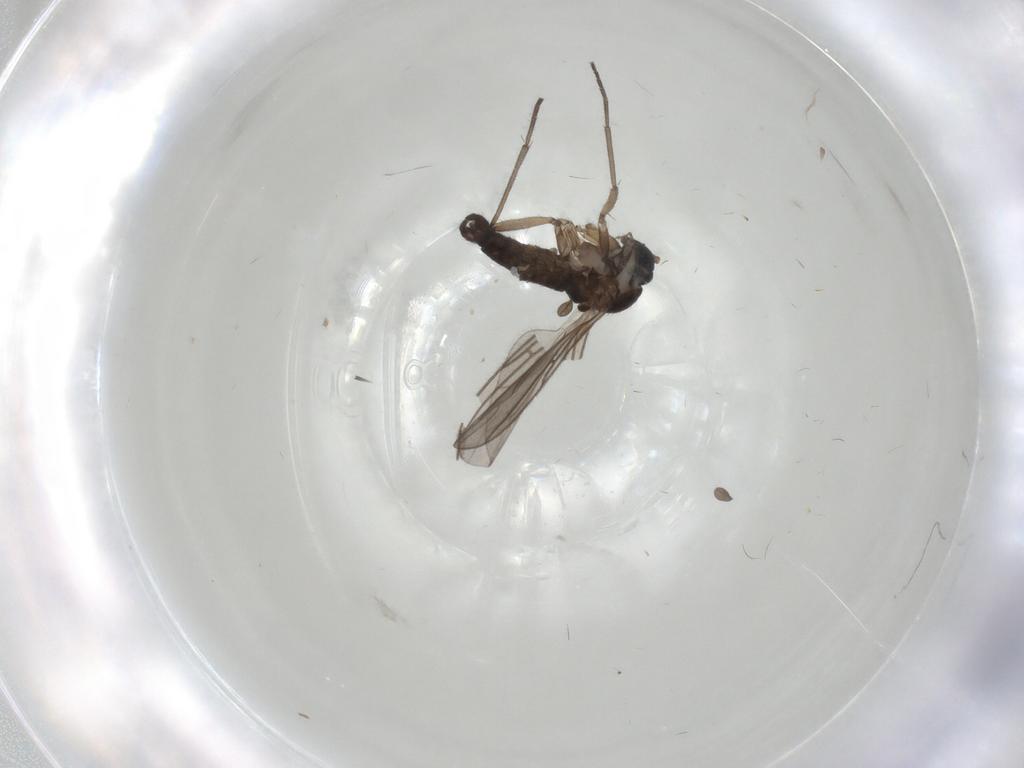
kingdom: Animalia
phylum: Arthropoda
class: Insecta
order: Diptera
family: Sciaridae
